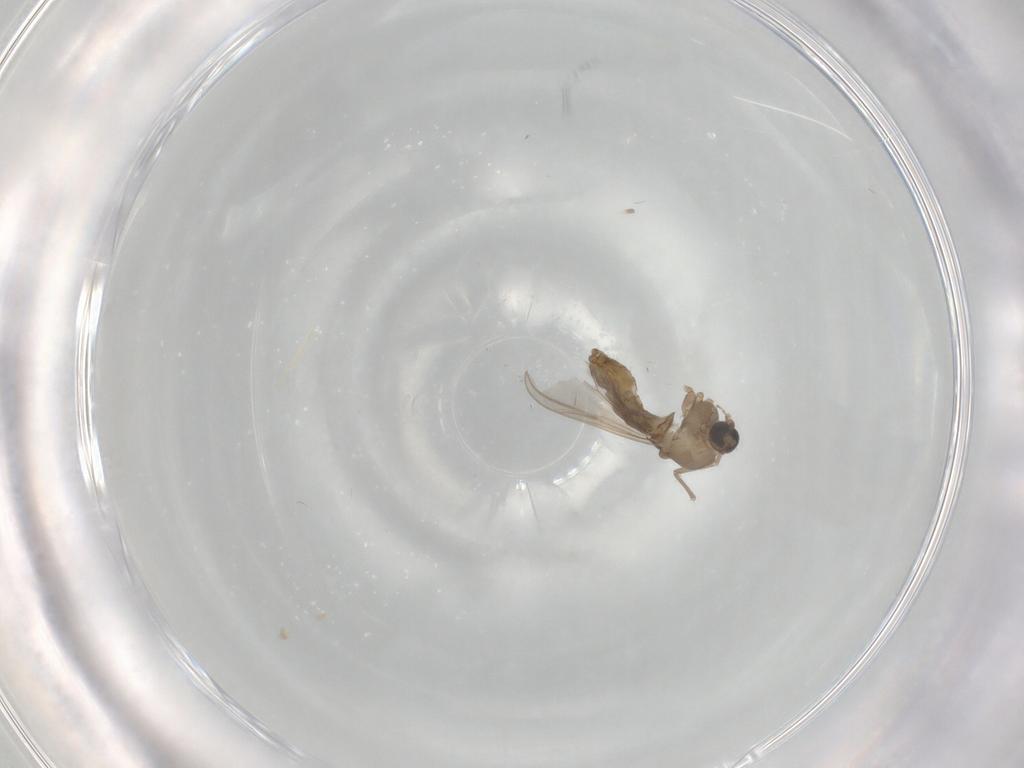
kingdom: Animalia
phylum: Arthropoda
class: Insecta
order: Diptera
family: Chironomidae
